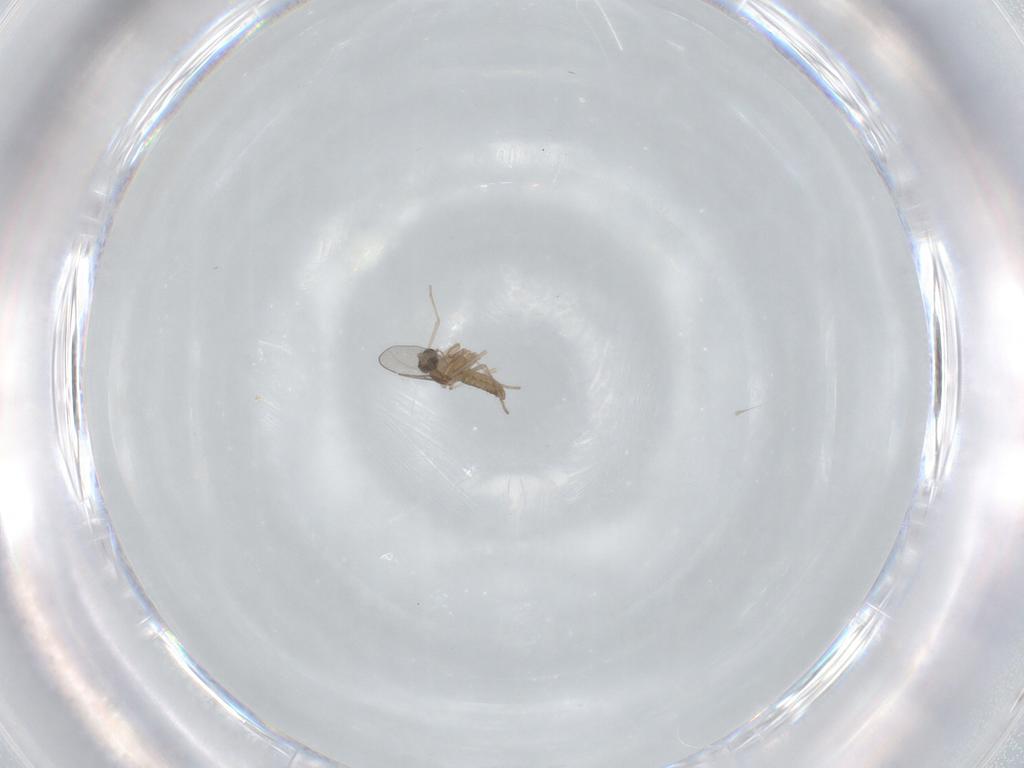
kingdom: Animalia
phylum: Arthropoda
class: Insecta
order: Diptera
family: Cecidomyiidae
